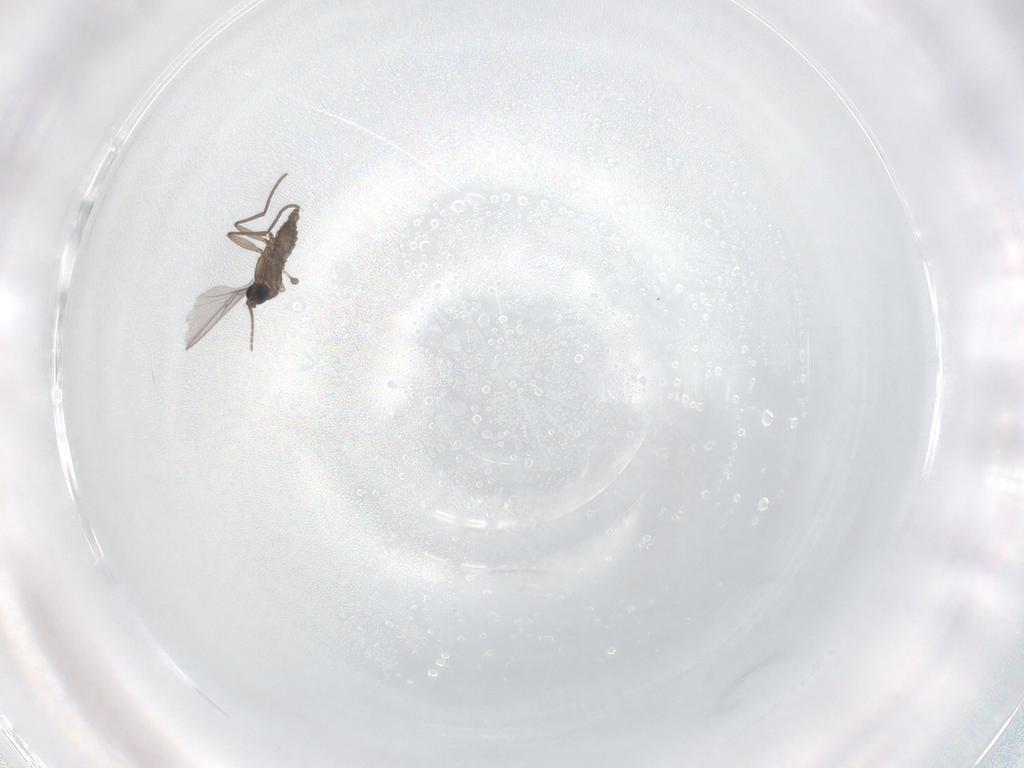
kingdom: Animalia
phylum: Arthropoda
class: Insecta
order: Diptera
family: Sciaridae
